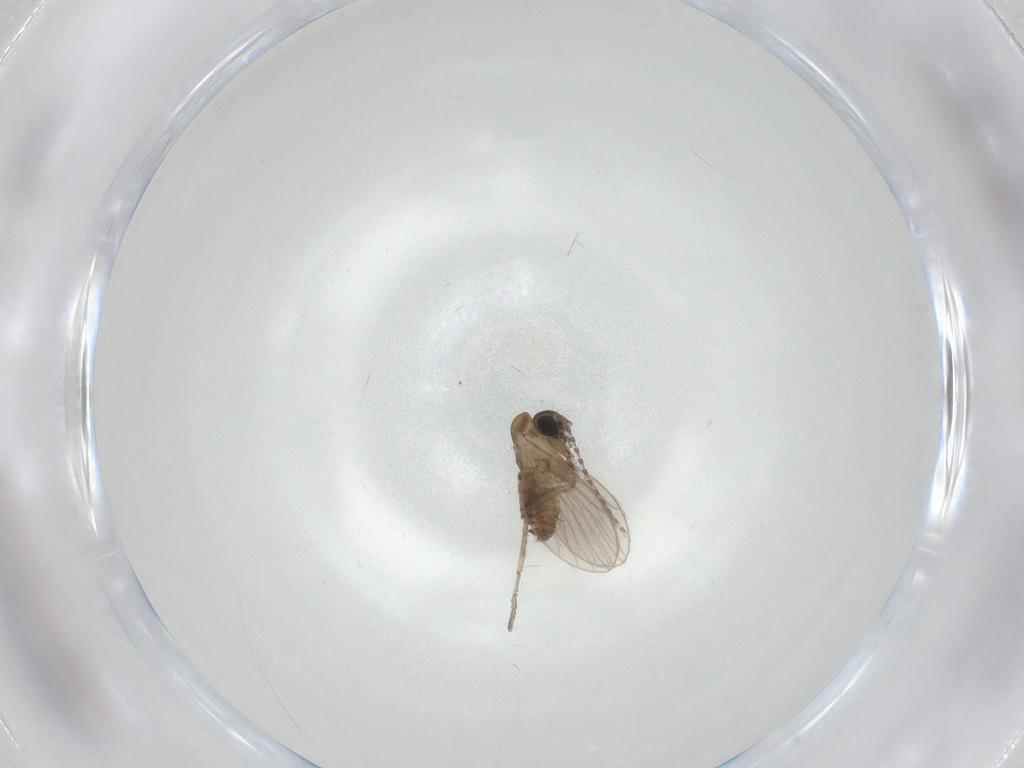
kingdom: Animalia
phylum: Arthropoda
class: Insecta
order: Diptera
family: Psychodidae
